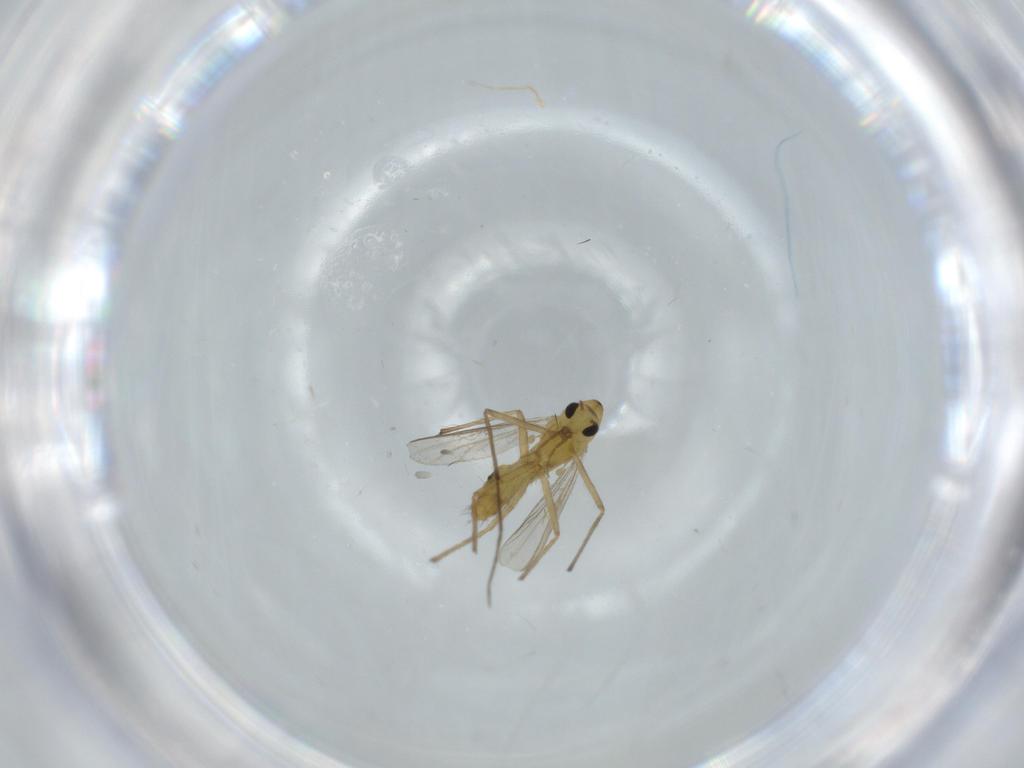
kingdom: Animalia
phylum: Arthropoda
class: Insecta
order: Diptera
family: Chironomidae
